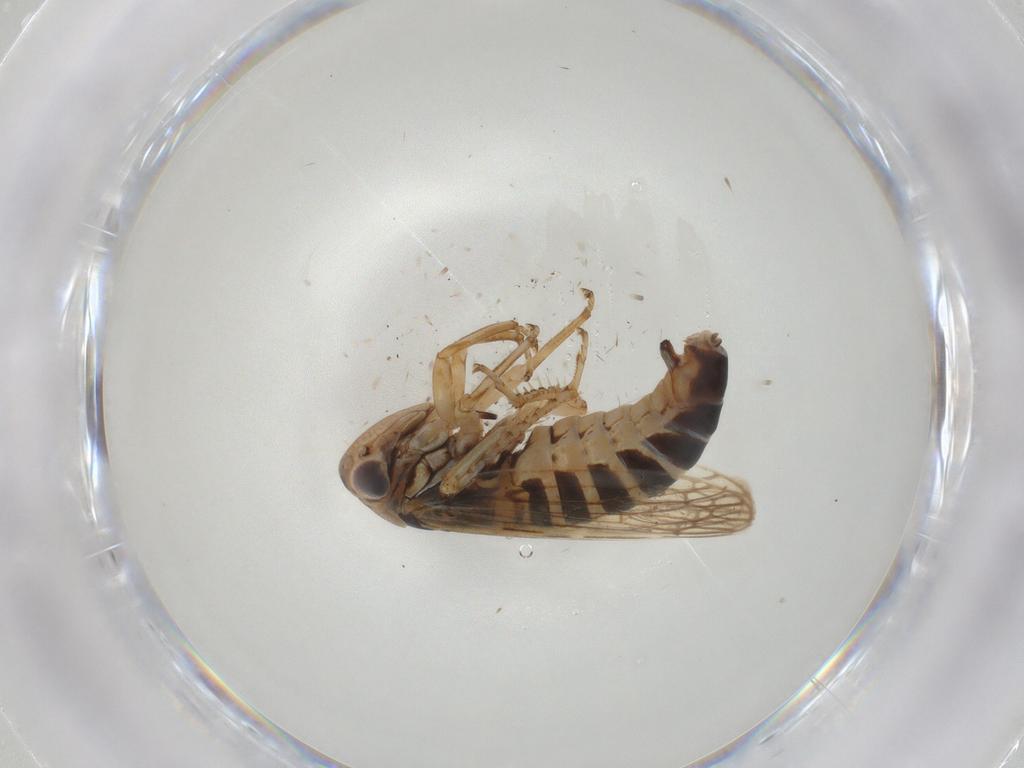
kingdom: Animalia
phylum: Arthropoda
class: Insecta
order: Hemiptera
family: Cicadellidae
